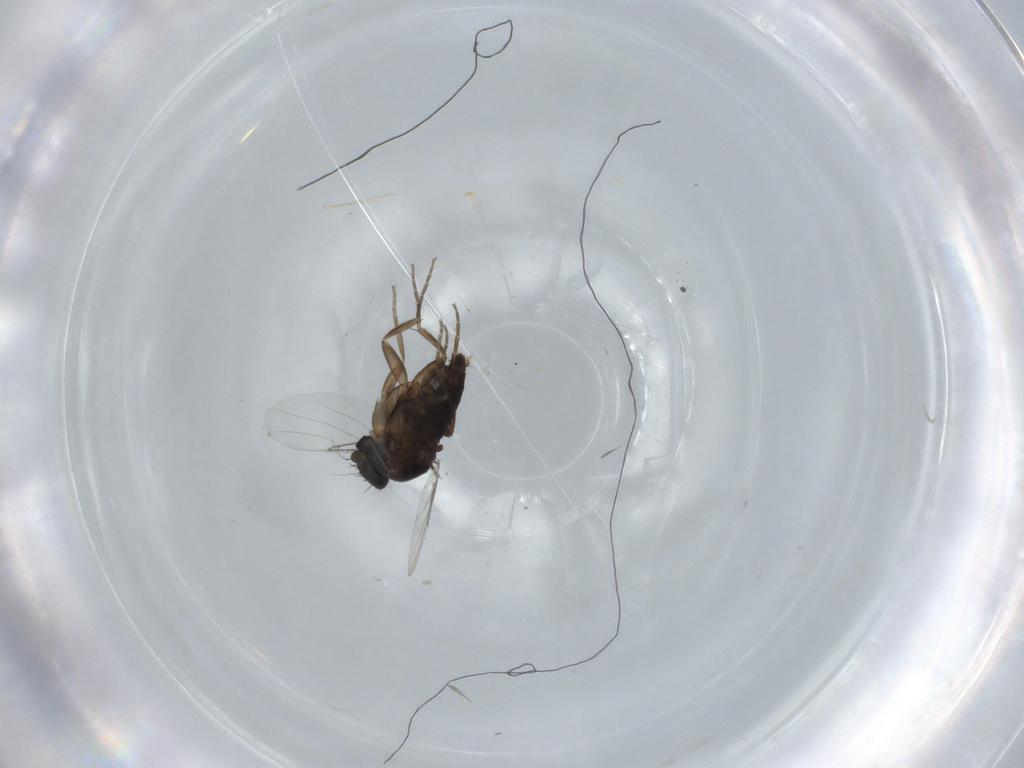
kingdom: Animalia
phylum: Arthropoda
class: Insecta
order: Diptera
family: Phoridae
